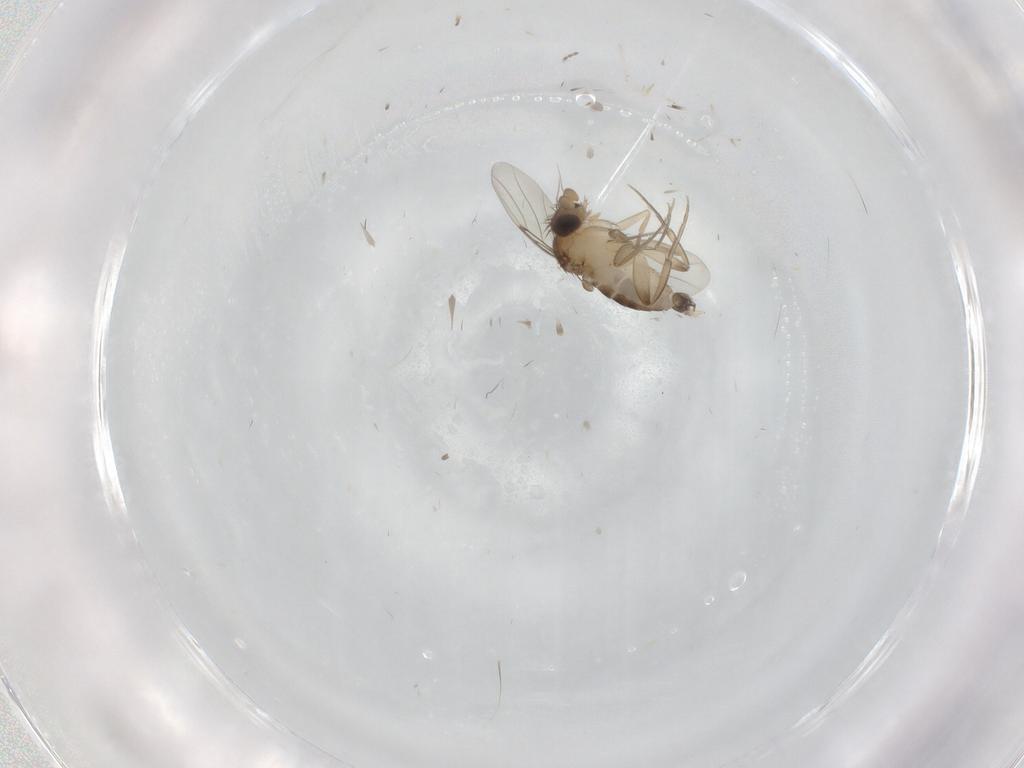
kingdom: Animalia
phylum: Arthropoda
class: Insecta
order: Diptera
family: Phoridae
